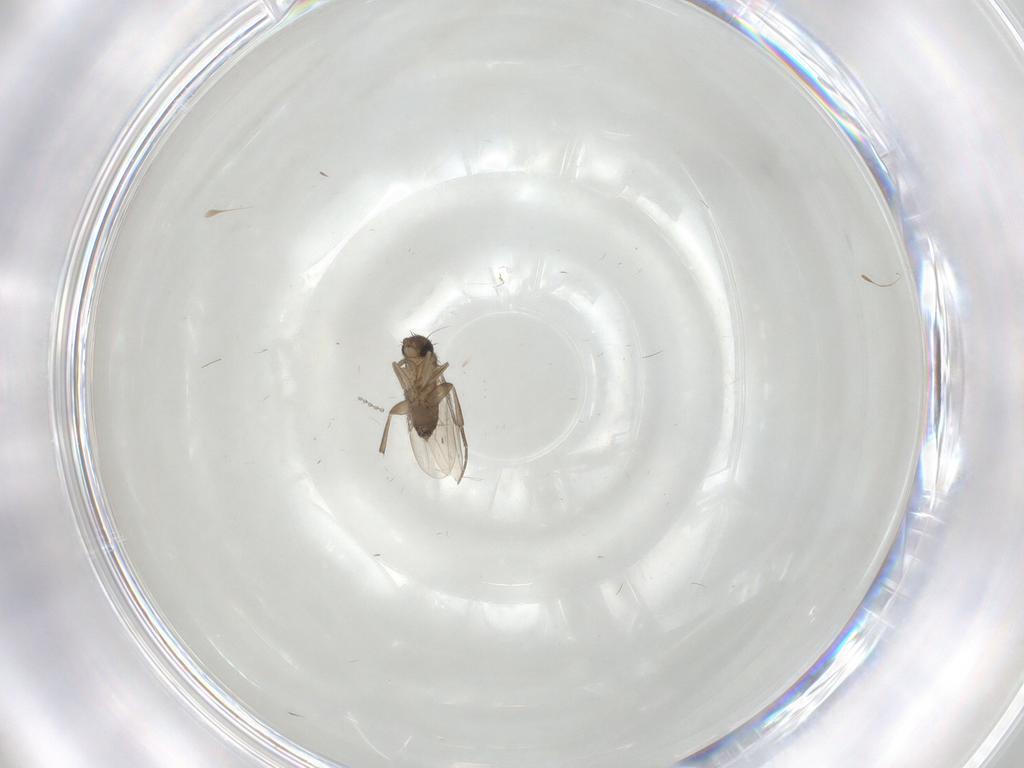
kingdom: Animalia
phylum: Arthropoda
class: Insecta
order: Diptera
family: Phoridae
